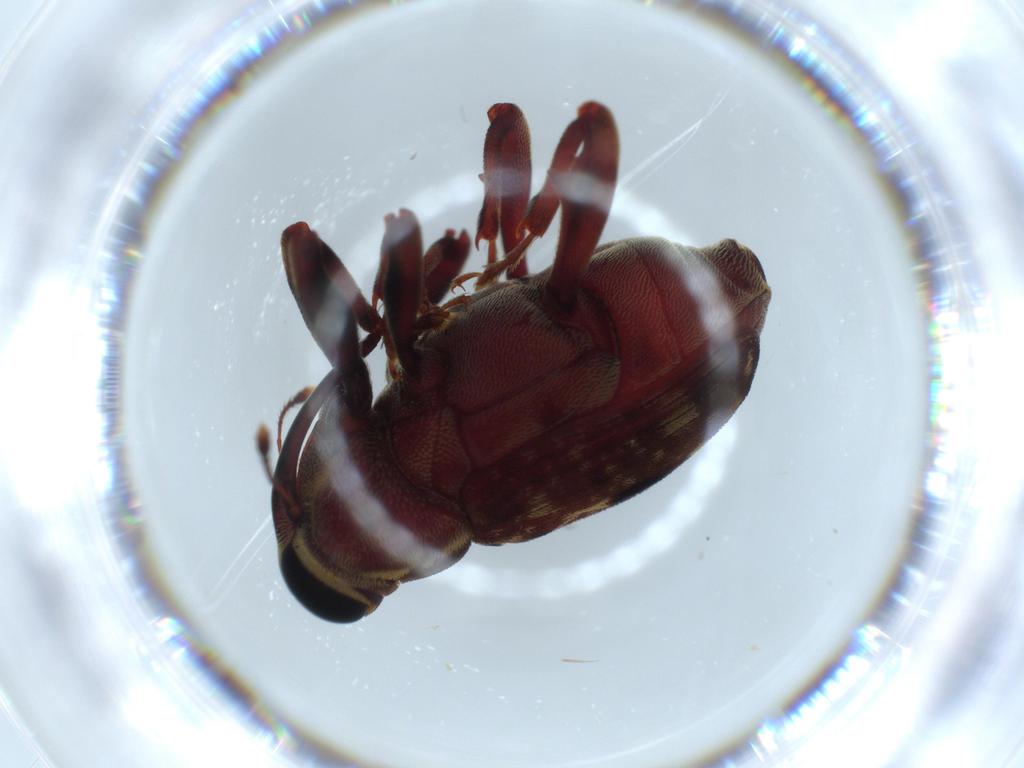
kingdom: Animalia
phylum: Arthropoda
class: Insecta
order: Coleoptera
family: Curculionidae
